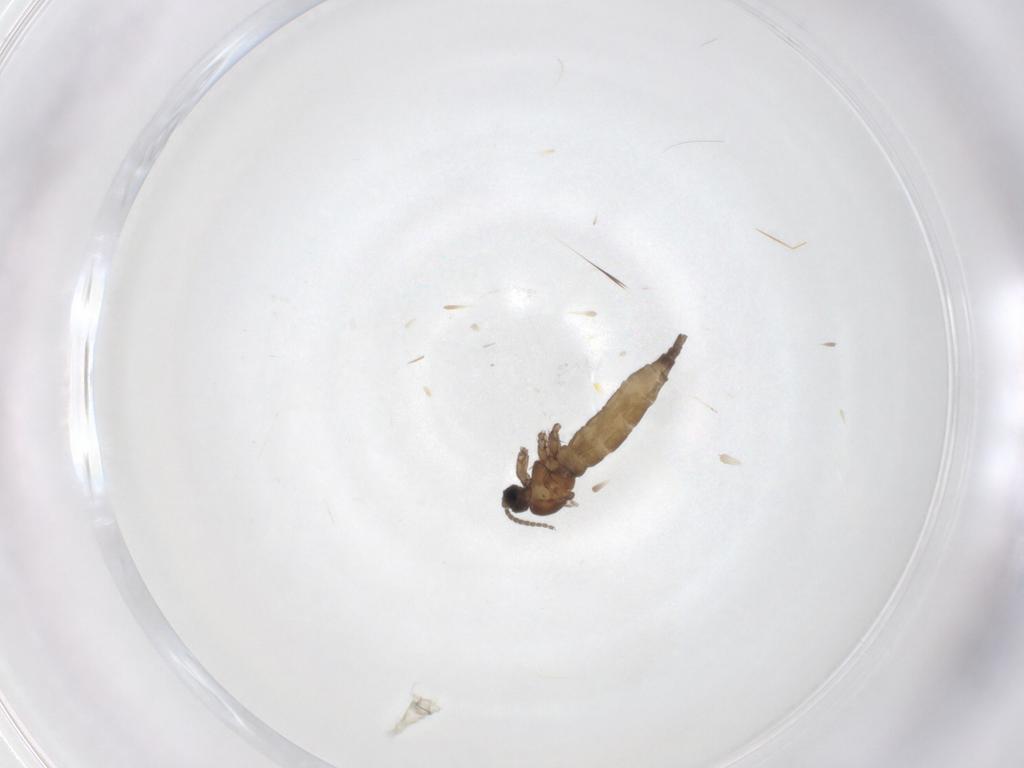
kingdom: Animalia
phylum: Arthropoda
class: Insecta
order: Diptera
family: Sciaridae
